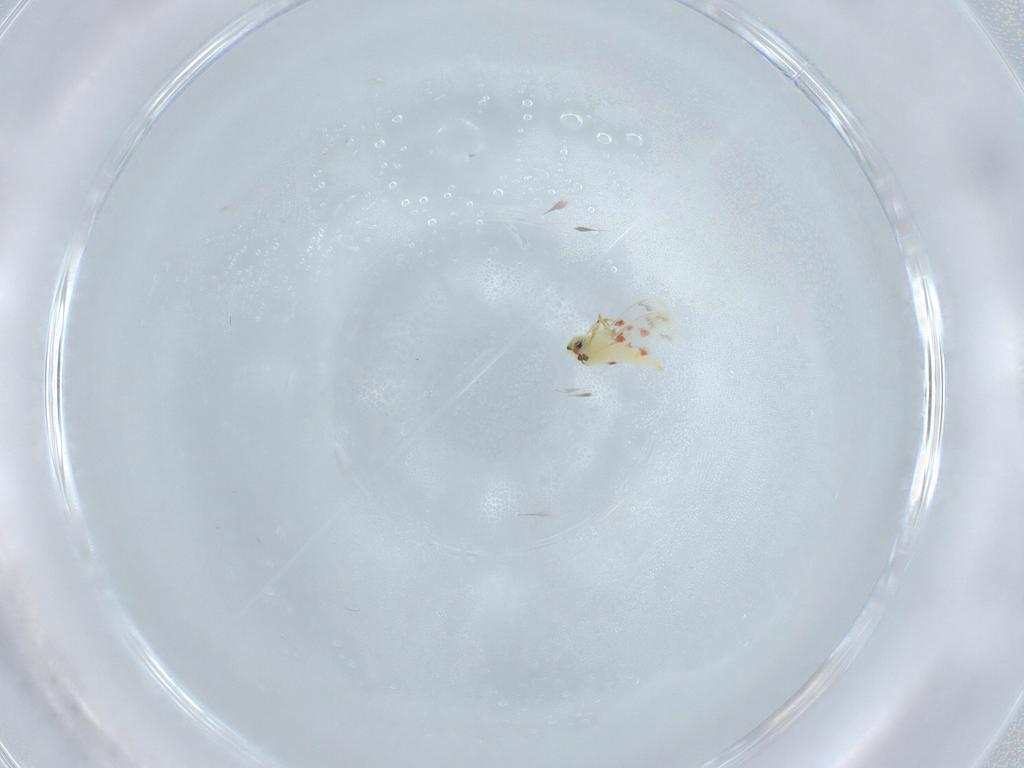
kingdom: Animalia
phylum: Arthropoda
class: Insecta
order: Hemiptera
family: Aleyrodidae
